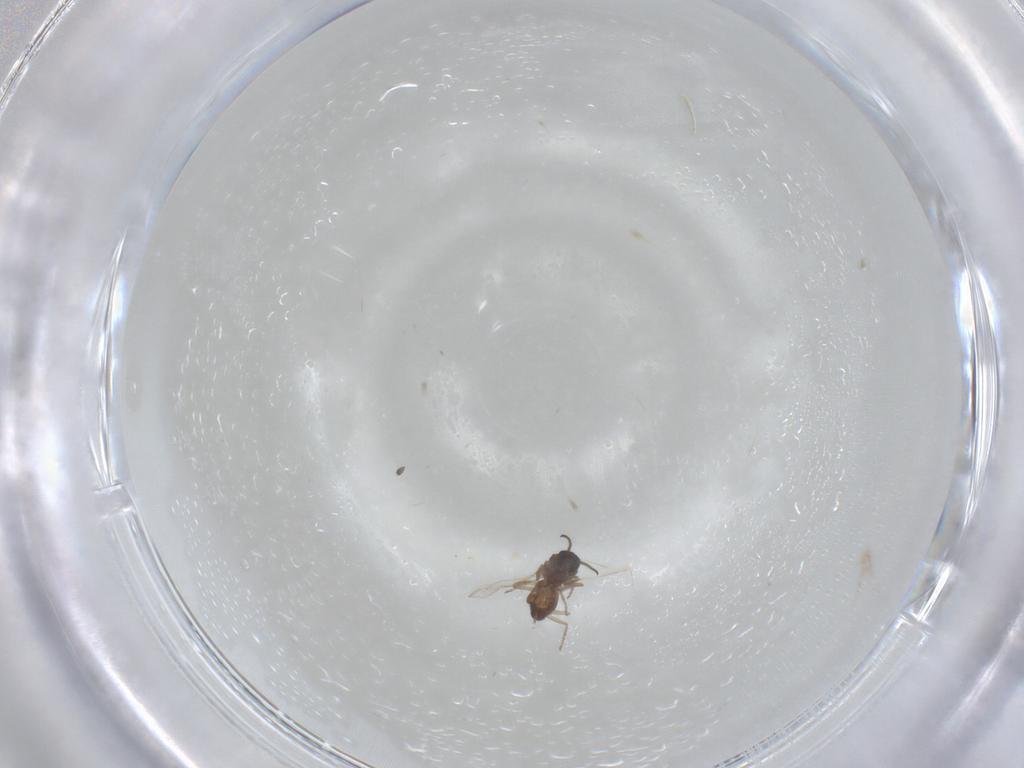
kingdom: Animalia
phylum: Arthropoda
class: Insecta
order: Diptera
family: Ceratopogonidae
